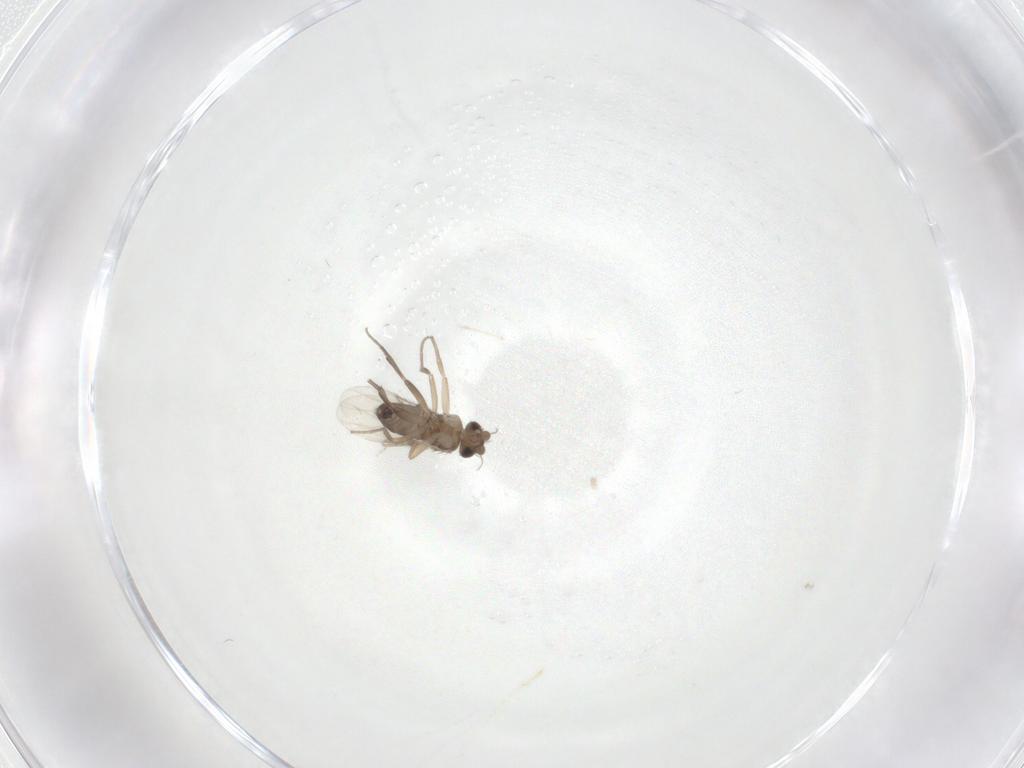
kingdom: Animalia
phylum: Arthropoda
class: Insecta
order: Diptera
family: Phoridae
